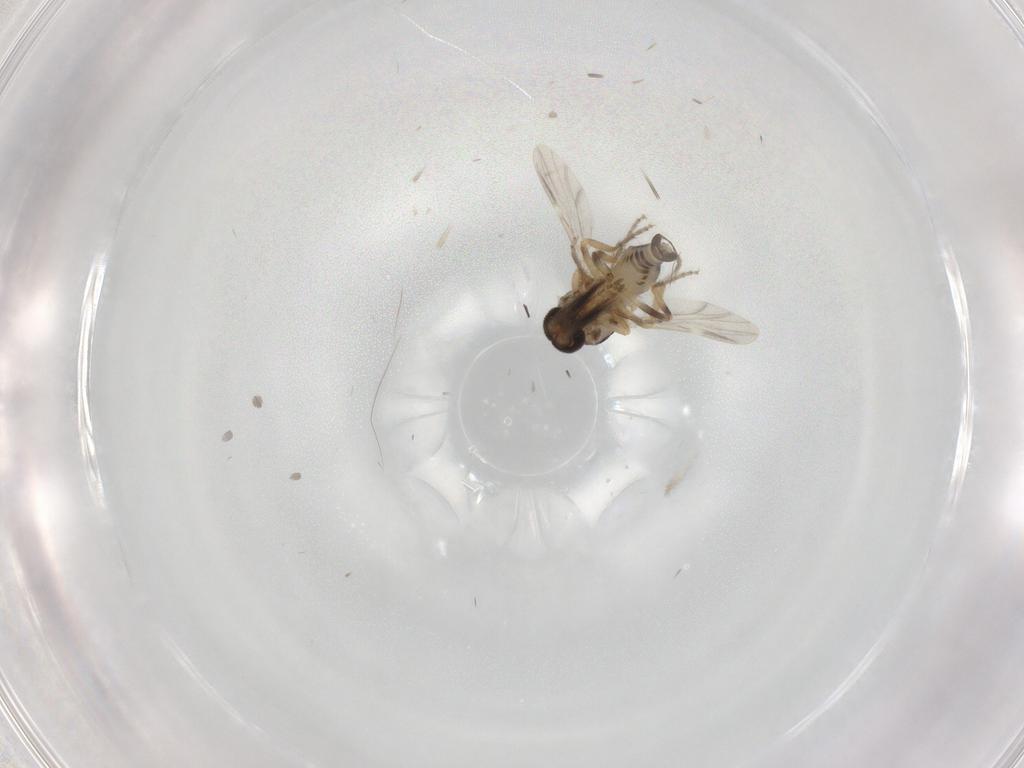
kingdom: Animalia
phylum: Arthropoda
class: Insecta
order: Diptera
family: Ceratopogonidae
